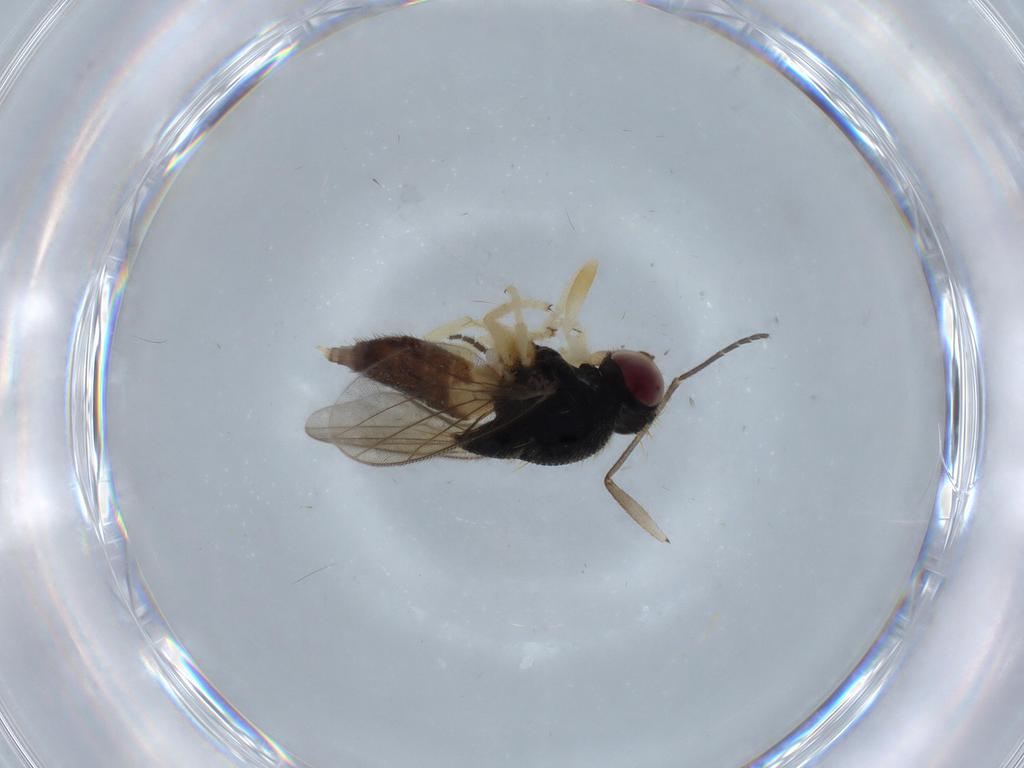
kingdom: Animalia
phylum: Arthropoda
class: Insecta
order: Diptera
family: Chloropidae
